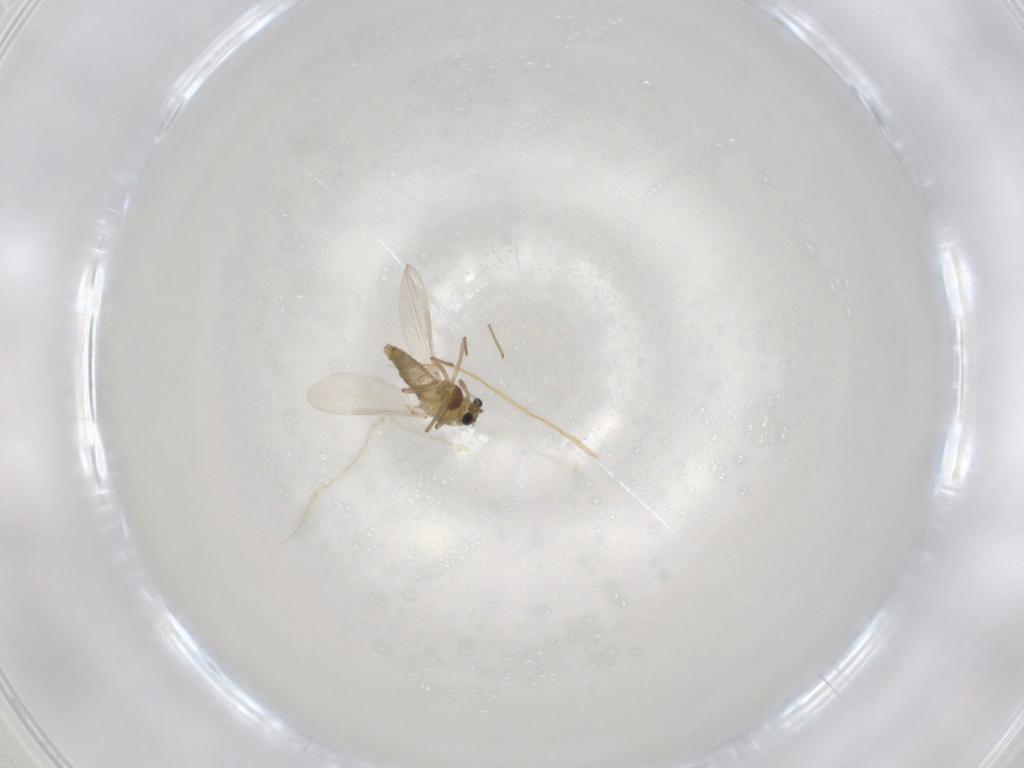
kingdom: Animalia
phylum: Arthropoda
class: Insecta
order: Diptera
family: Chironomidae
